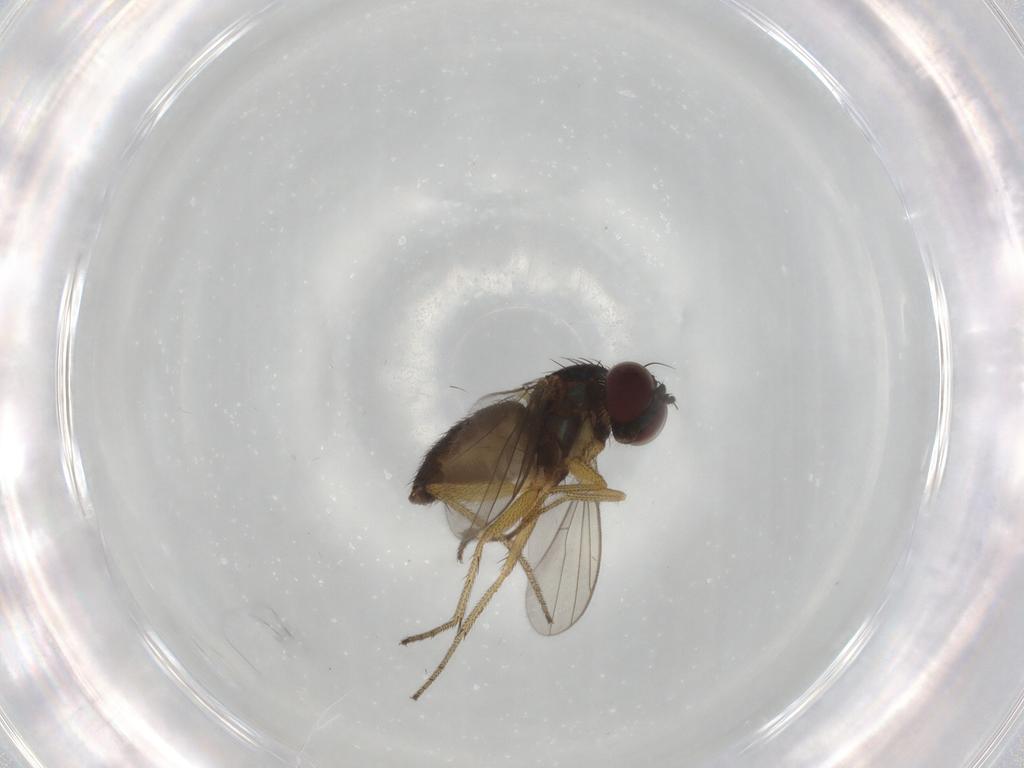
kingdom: Animalia
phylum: Arthropoda
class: Insecta
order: Diptera
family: Dolichopodidae
